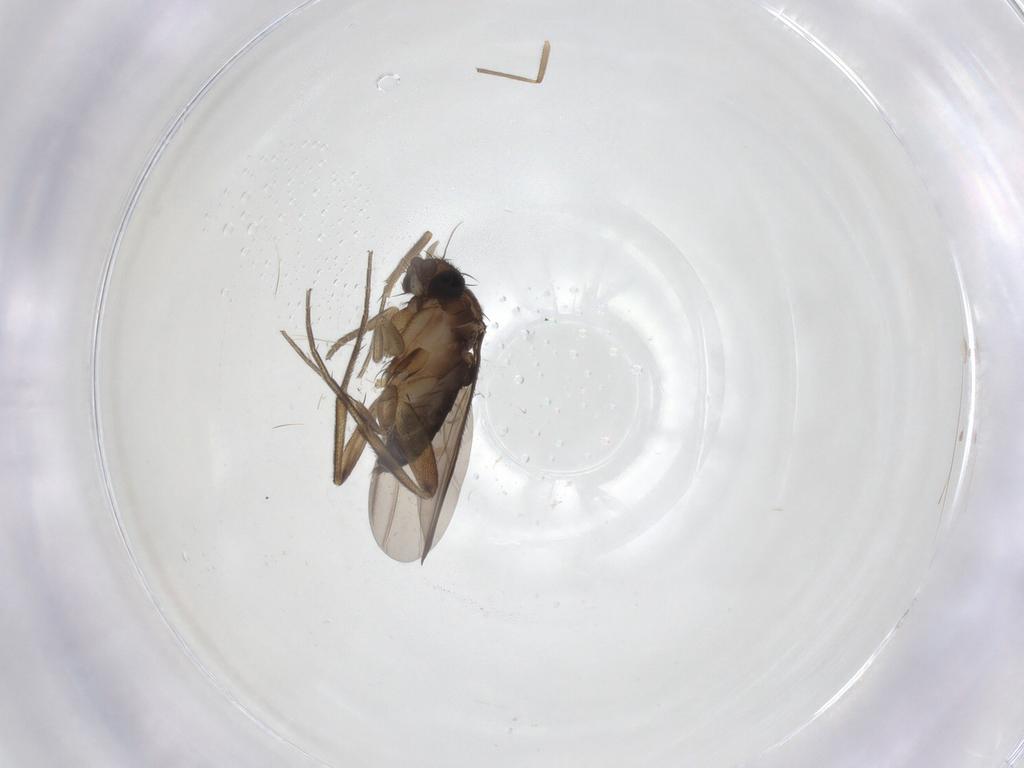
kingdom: Animalia
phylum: Arthropoda
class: Insecta
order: Diptera
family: Phoridae
